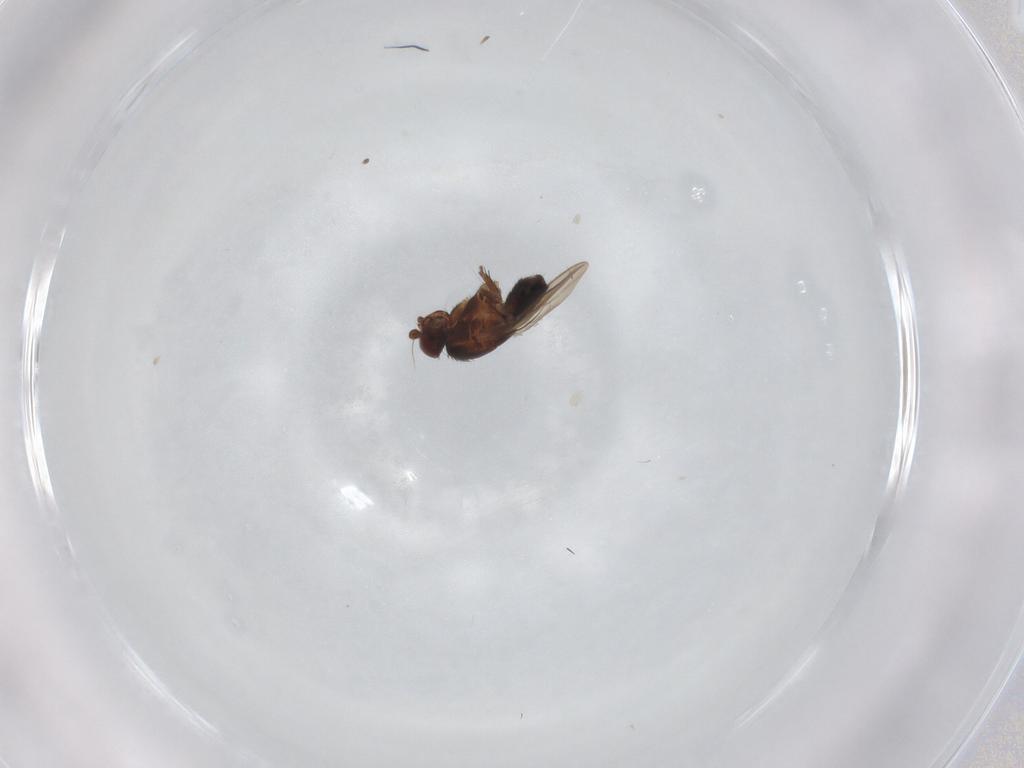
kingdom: Animalia
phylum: Arthropoda
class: Insecta
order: Diptera
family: Sphaeroceridae
